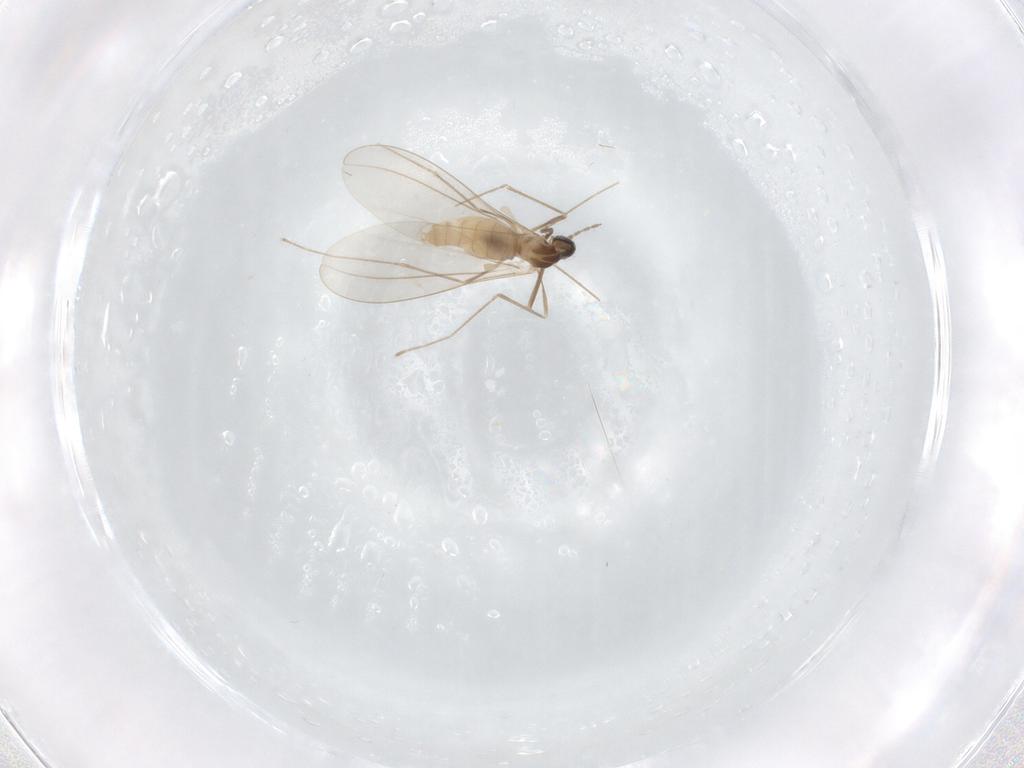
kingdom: Animalia
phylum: Arthropoda
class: Insecta
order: Diptera
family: Cecidomyiidae
